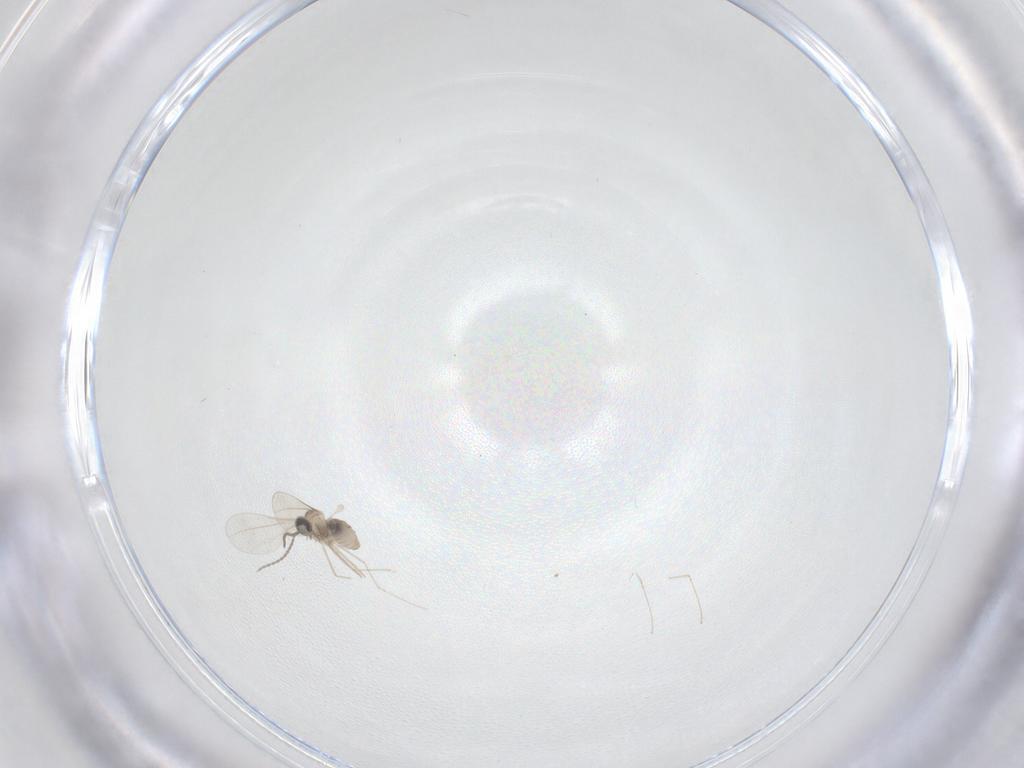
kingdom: Animalia
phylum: Arthropoda
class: Insecta
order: Diptera
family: Cecidomyiidae
